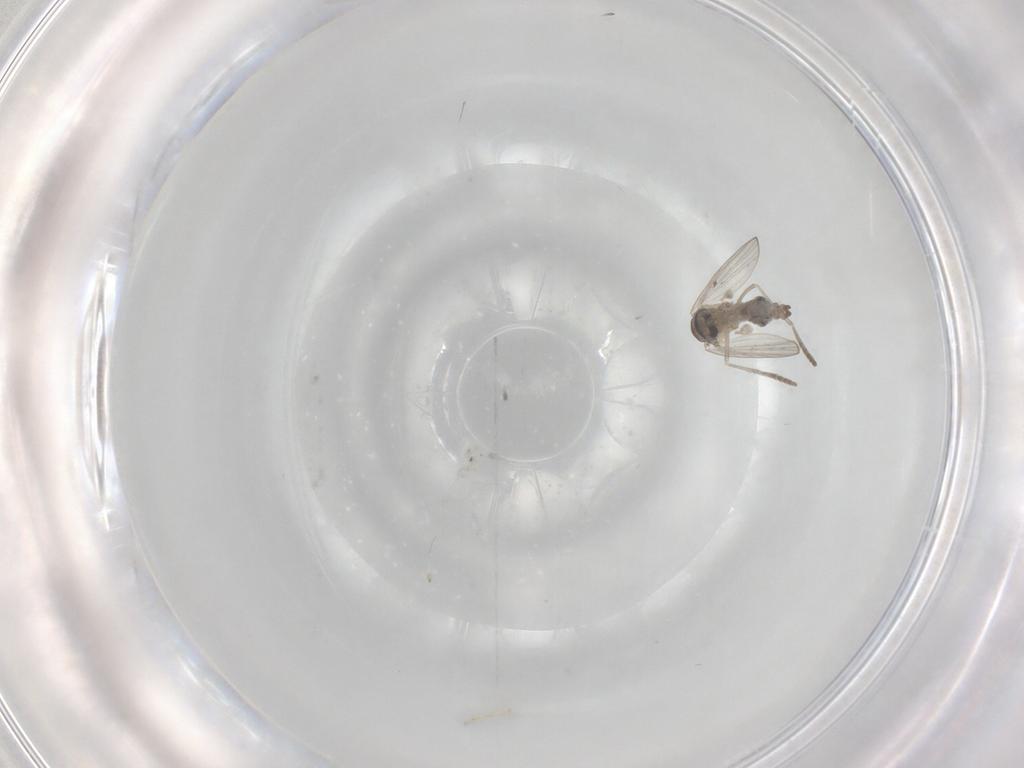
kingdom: Animalia
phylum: Arthropoda
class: Insecta
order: Diptera
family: Psychodidae
